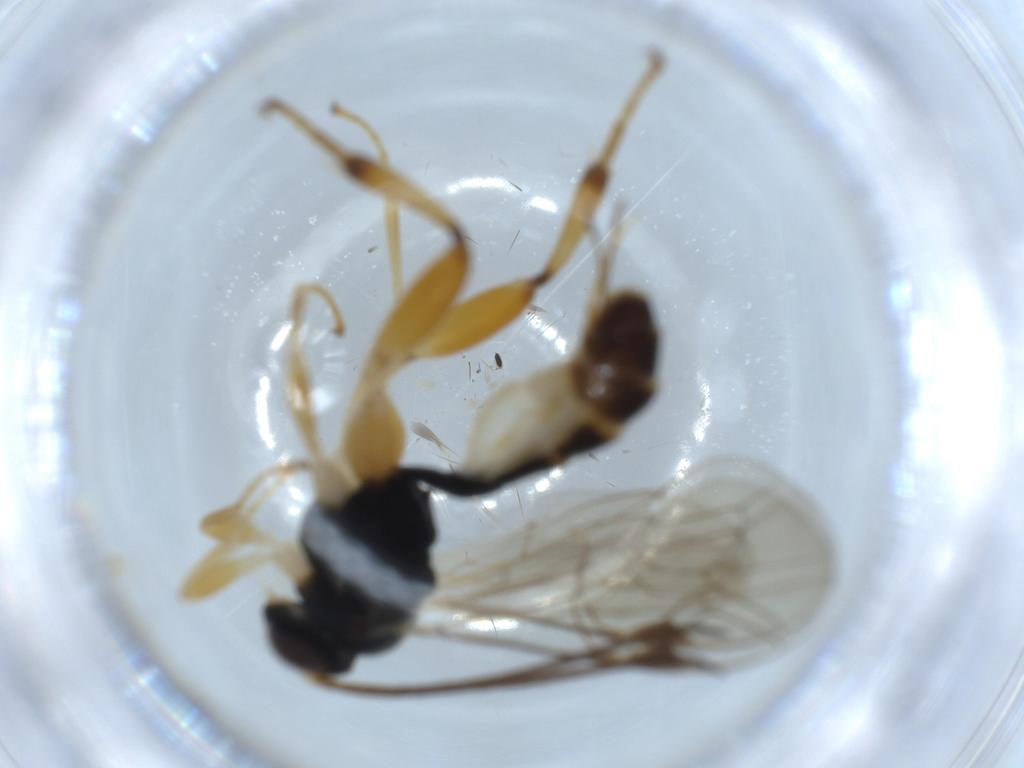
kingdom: Animalia
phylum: Arthropoda
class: Insecta
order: Hymenoptera
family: Ichneumonidae
